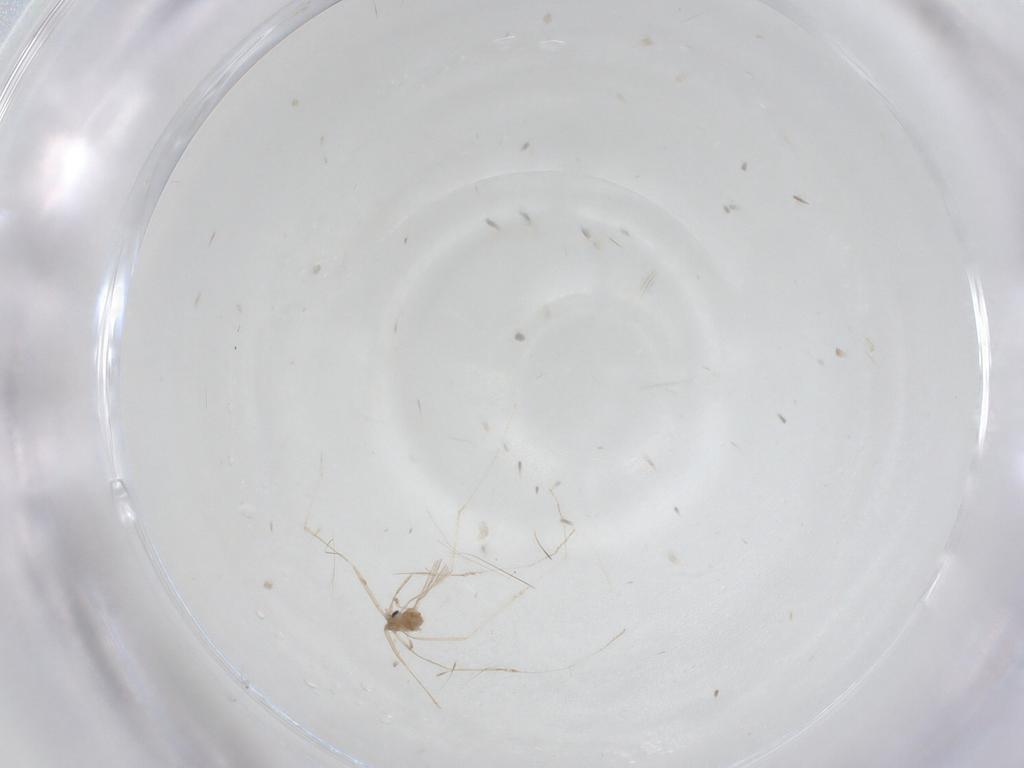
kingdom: Animalia
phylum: Arthropoda
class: Insecta
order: Diptera
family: Cecidomyiidae
